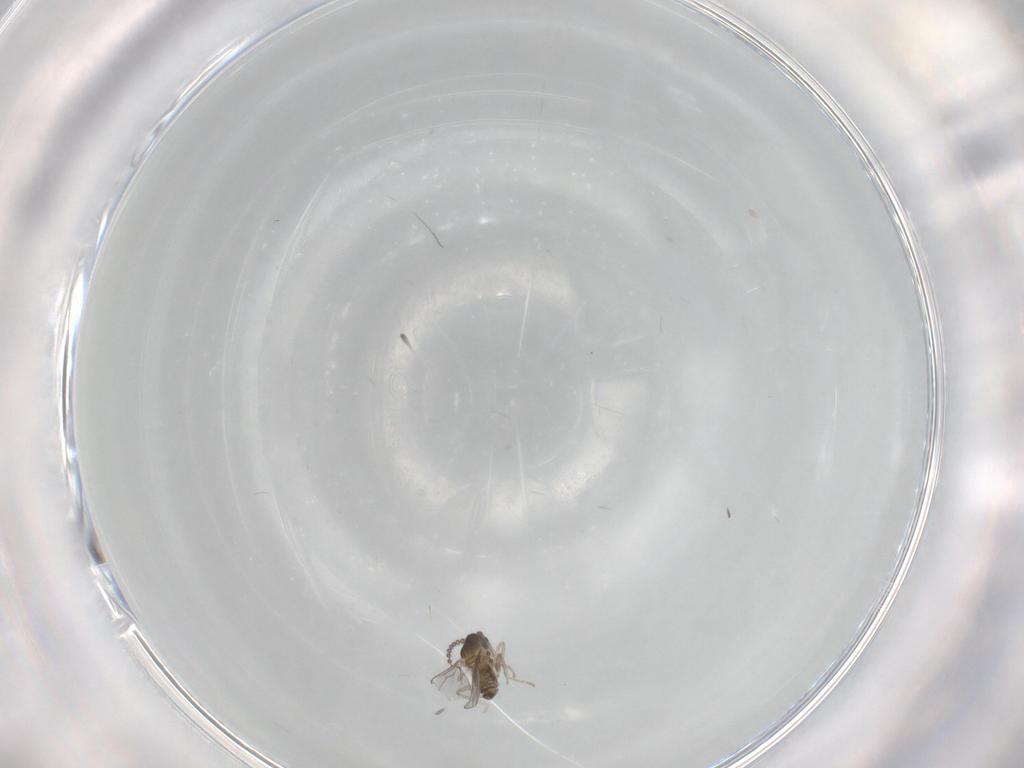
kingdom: Animalia
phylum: Arthropoda
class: Insecta
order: Diptera
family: Cecidomyiidae
